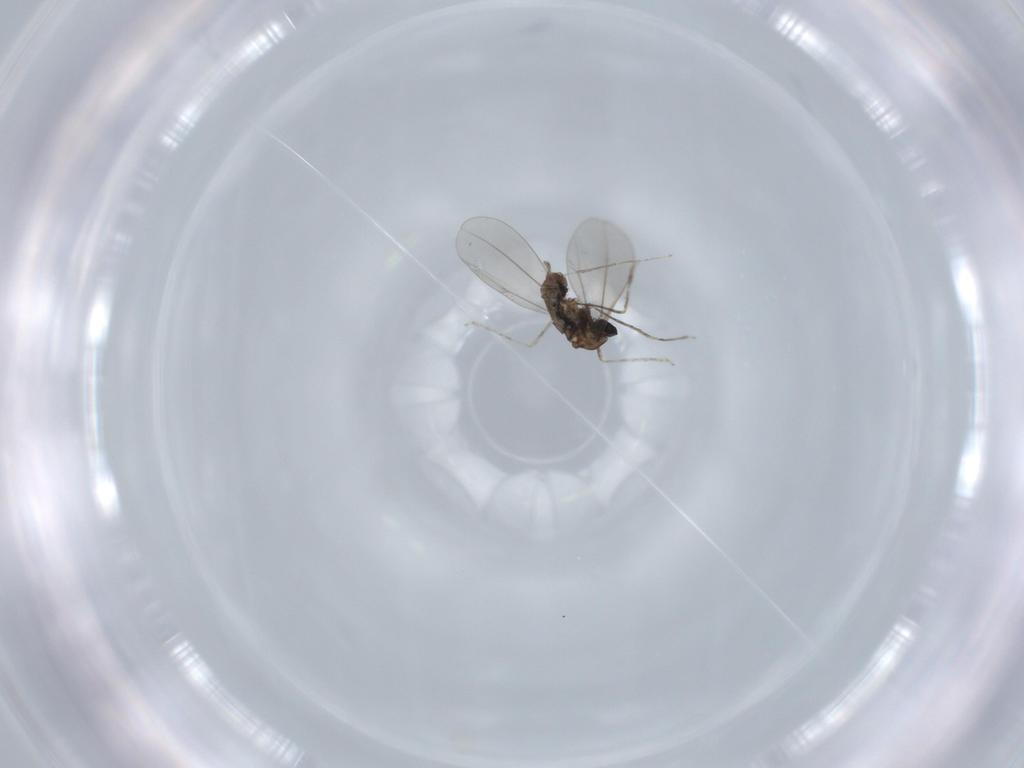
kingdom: Animalia
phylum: Arthropoda
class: Insecta
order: Diptera
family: Cecidomyiidae
